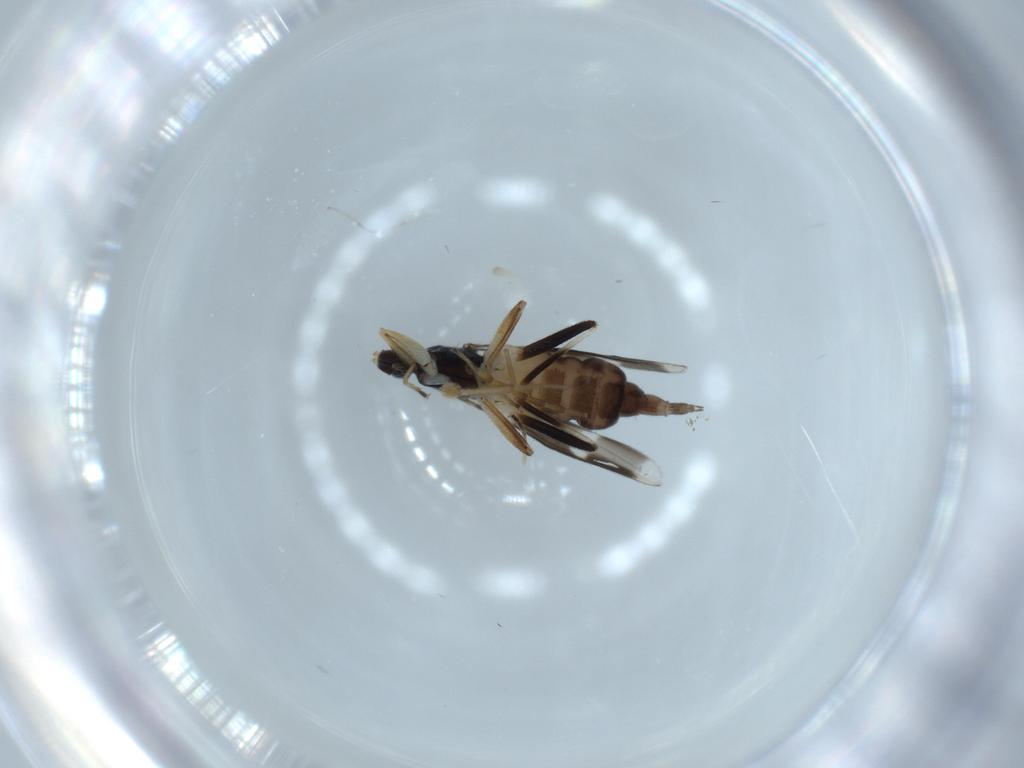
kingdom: Animalia
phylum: Arthropoda
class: Insecta
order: Diptera
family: Hybotidae
